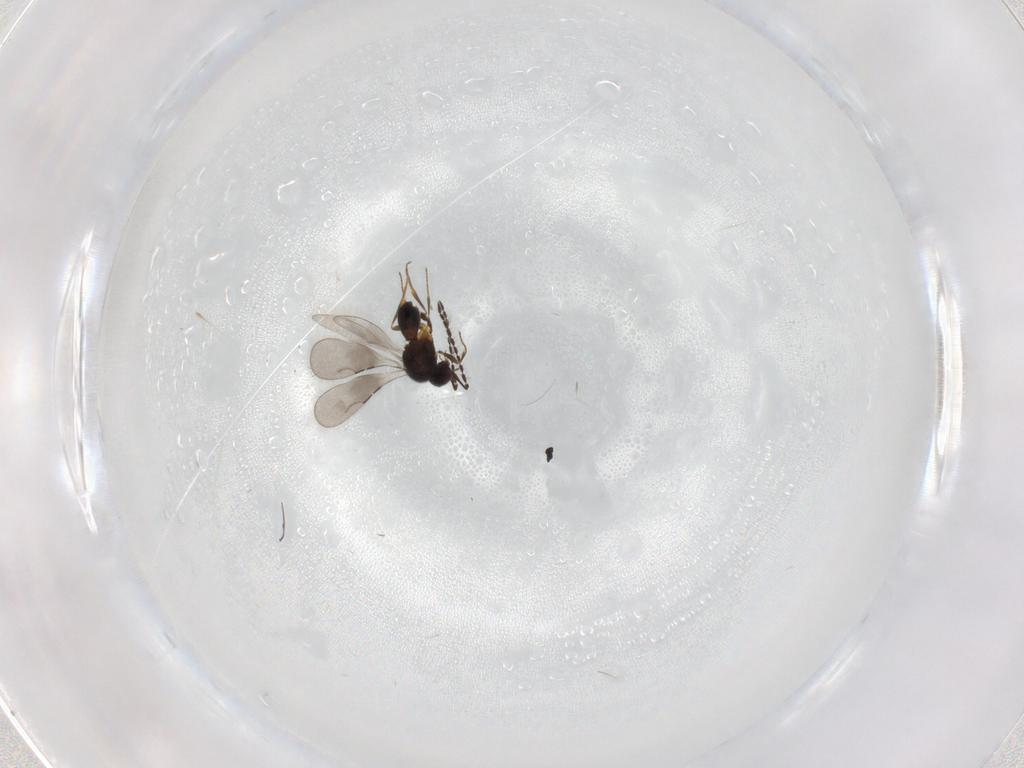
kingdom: Animalia
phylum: Arthropoda
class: Insecta
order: Hymenoptera
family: Ceraphronidae
